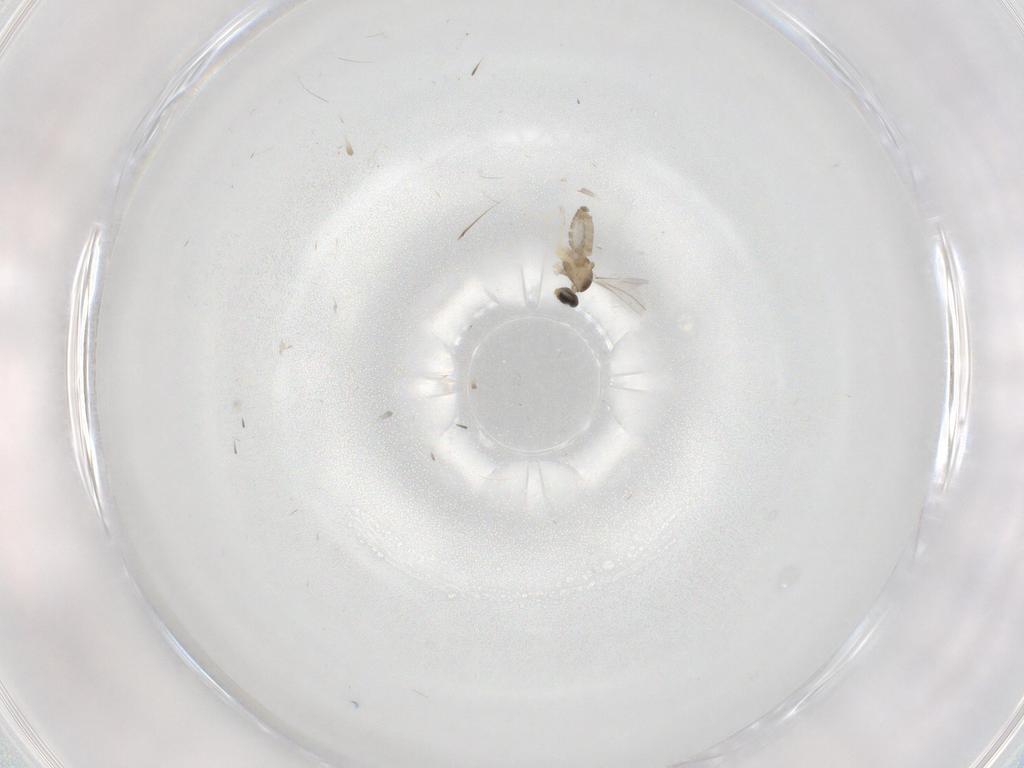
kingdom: Animalia
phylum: Arthropoda
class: Insecta
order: Diptera
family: Cecidomyiidae
